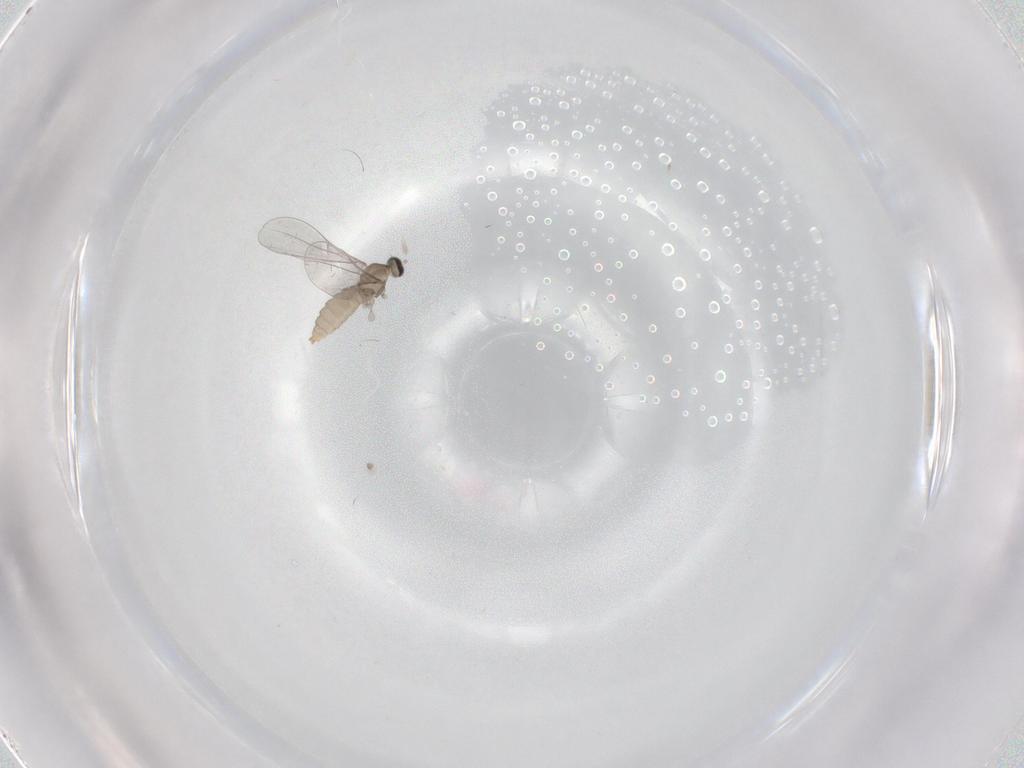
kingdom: Animalia
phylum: Arthropoda
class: Insecta
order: Diptera
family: Cecidomyiidae
